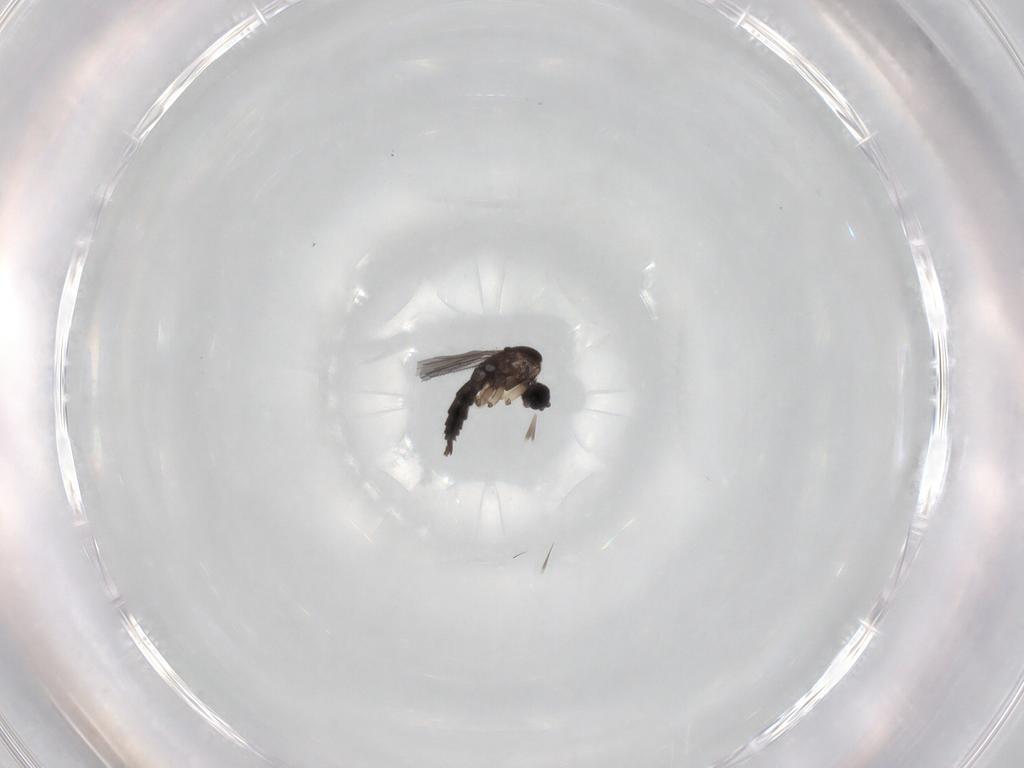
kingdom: Animalia
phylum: Arthropoda
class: Insecta
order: Diptera
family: Sciaridae
